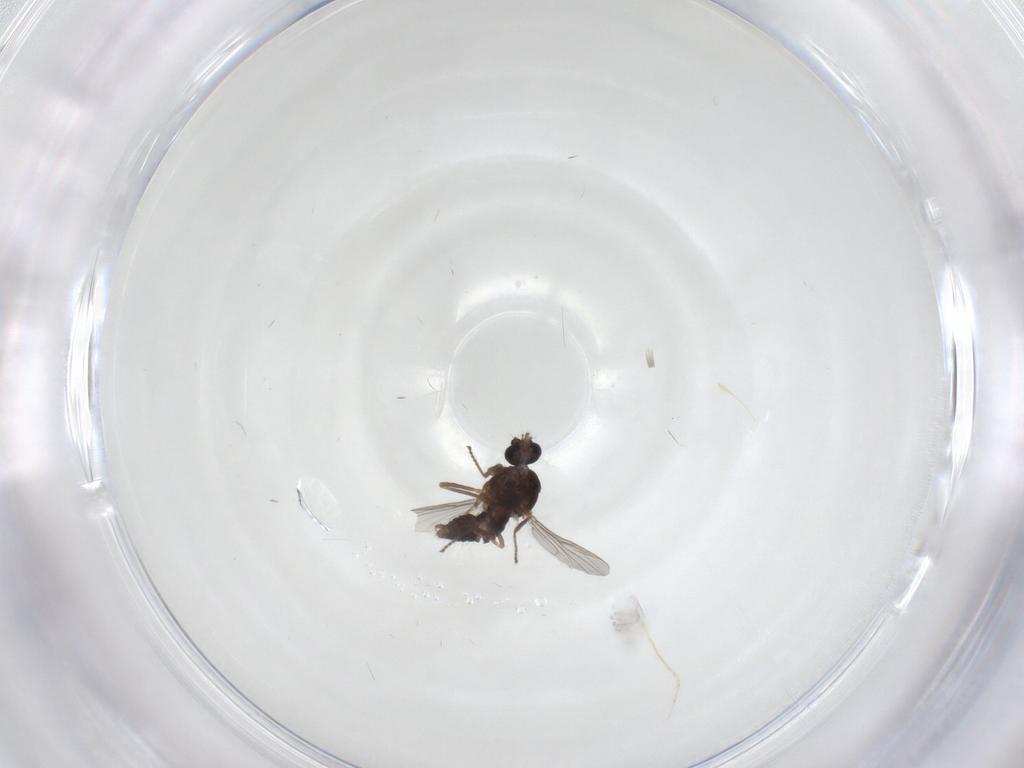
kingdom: Animalia
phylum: Arthropoda
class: Insecta
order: Diptera
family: Ceratopogonidae
